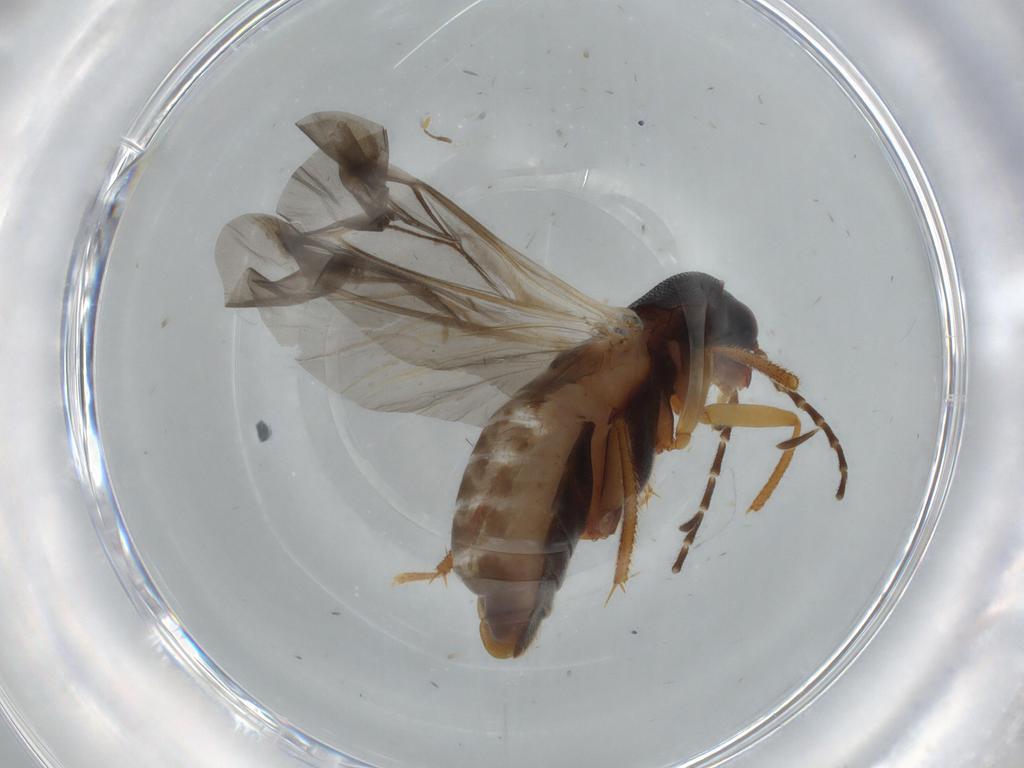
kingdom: Animalia
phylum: Arthropoda
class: Insecta
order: Coleoptera
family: Ptilodactylidae
